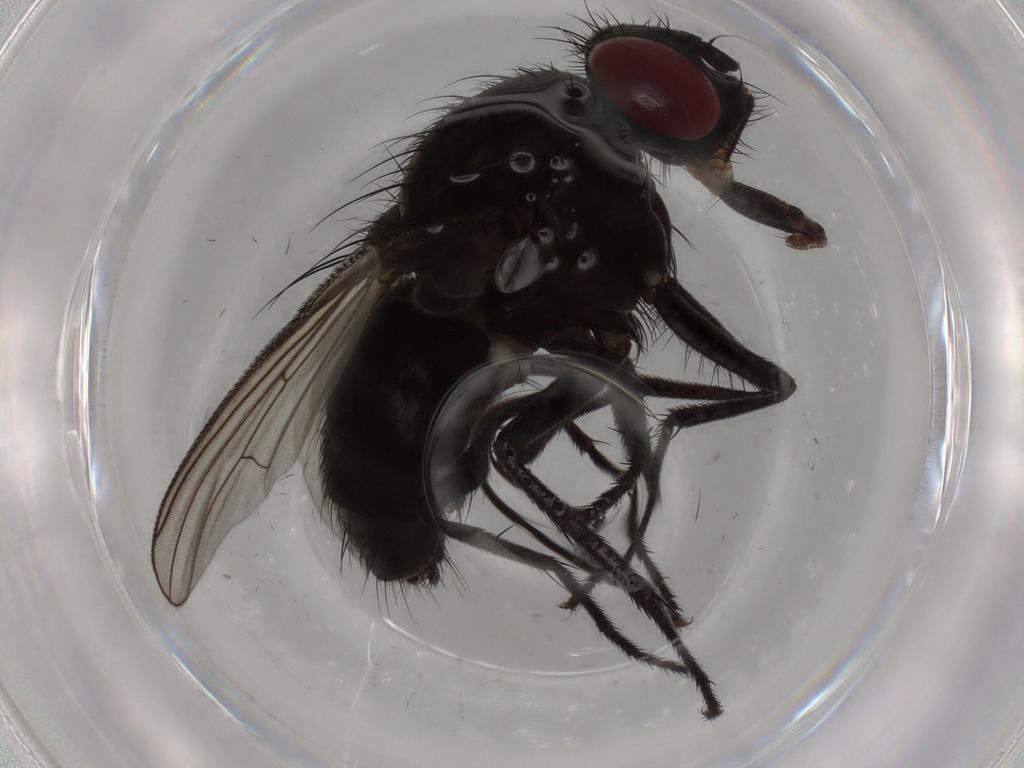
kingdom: Animalia
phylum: Arthropoda
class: Insecta
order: Diptera
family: Muscidae
